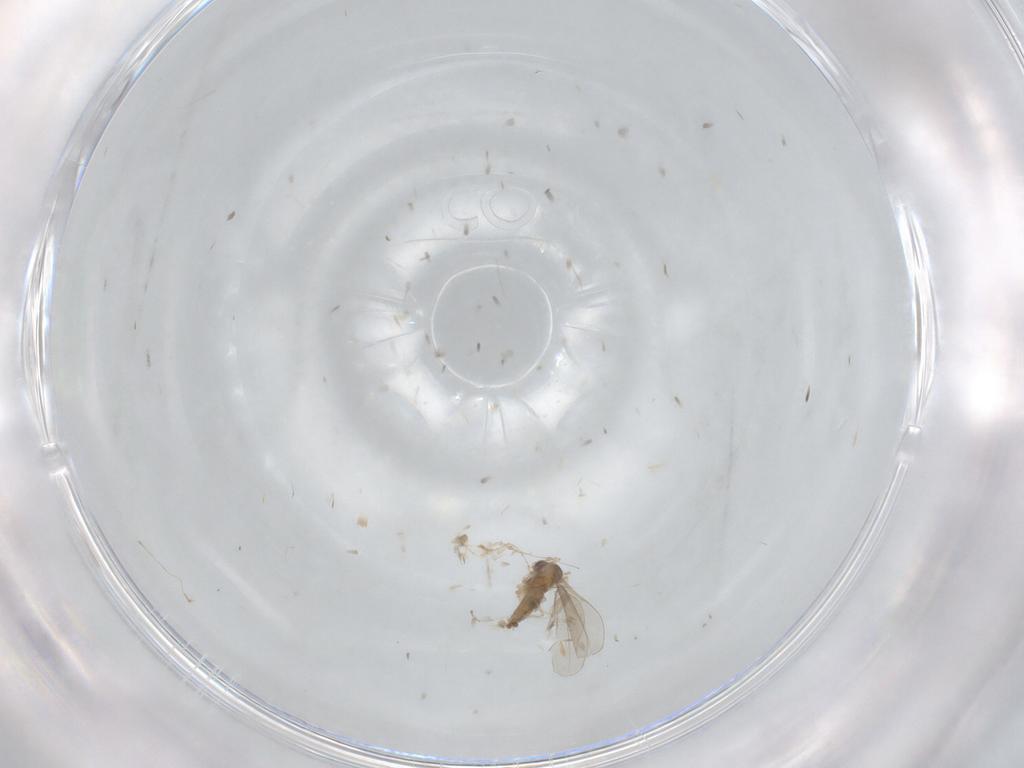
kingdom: Animalia
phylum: Arthropoda
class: Insecta
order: Diptera
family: Cecidomyiidae
